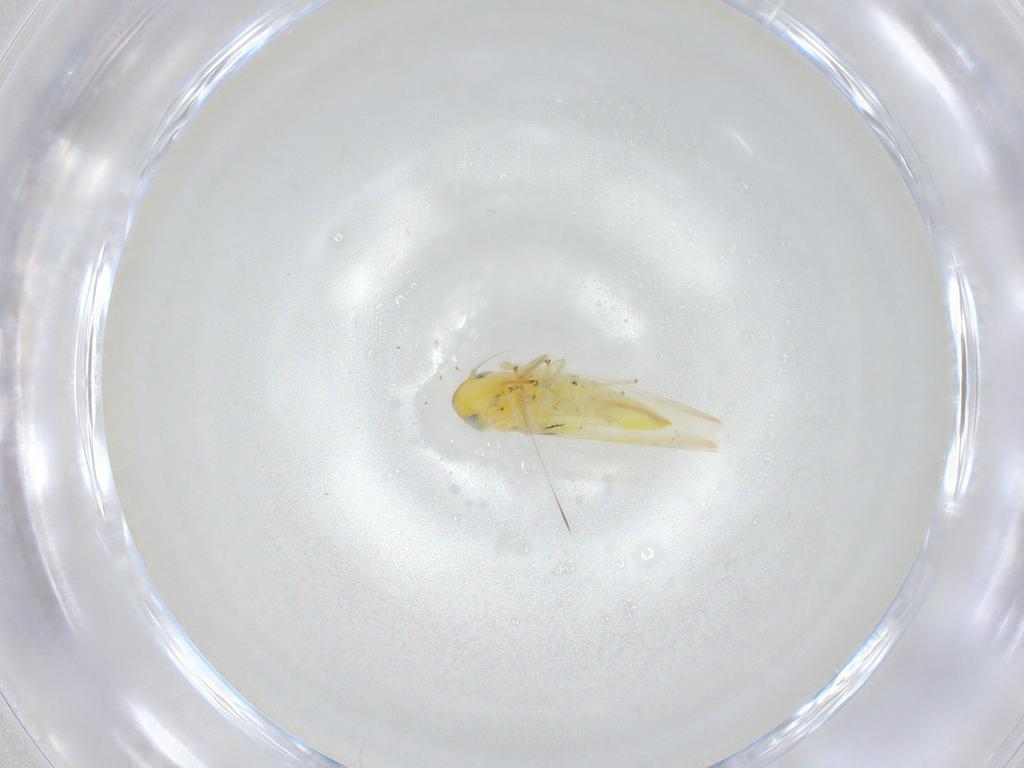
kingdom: Animalia
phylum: Arthropoda
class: Insecta
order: Hemiptera
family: Cicadellidae
